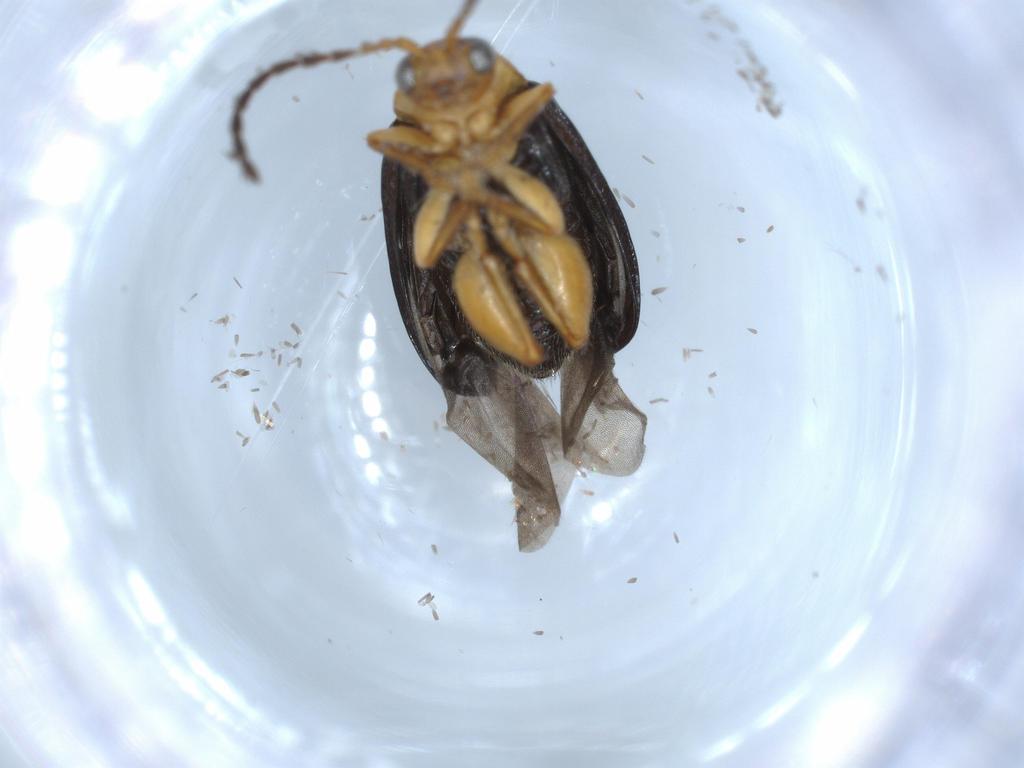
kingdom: Animalia
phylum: Arthropoda
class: Insecta
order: Coleoptera
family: Chrysomelidae
